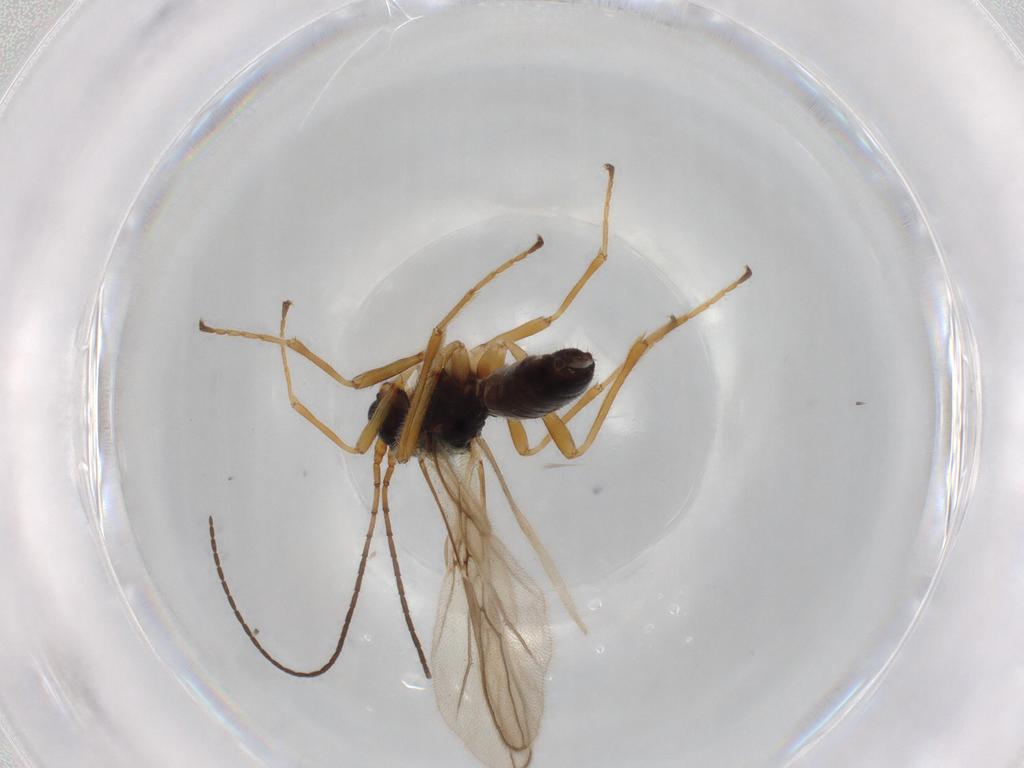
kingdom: Animalia
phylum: Arthropoda
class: Insecta
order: Hymenoptera
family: Braconidae
